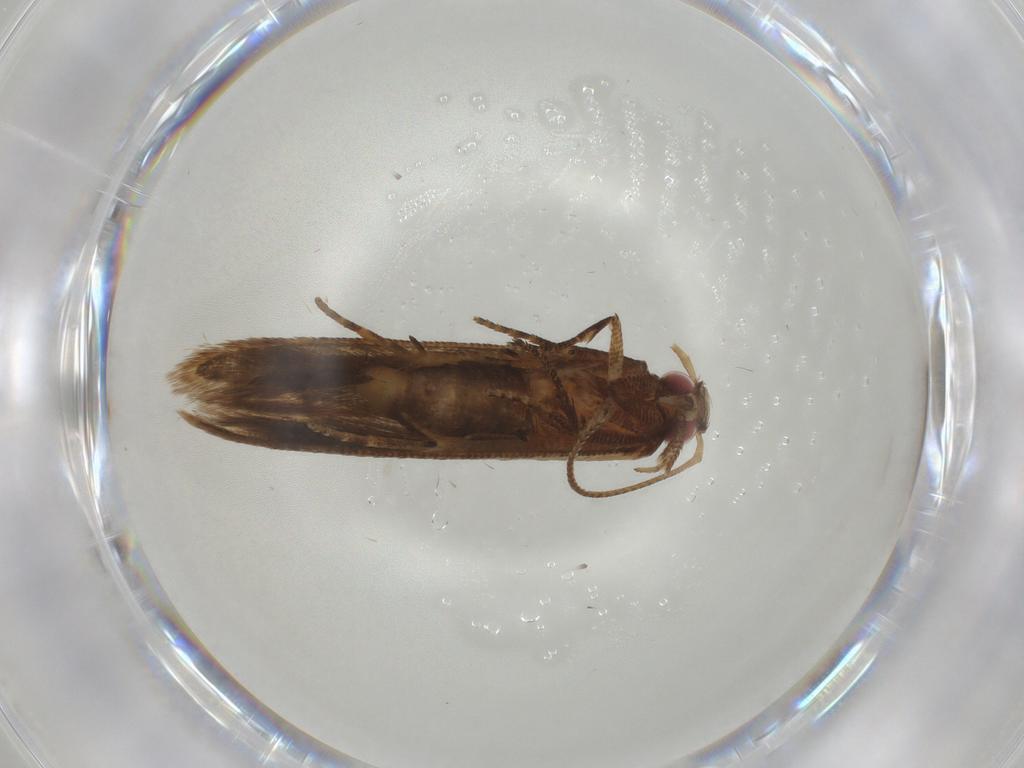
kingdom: Animalia
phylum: Arthropoda
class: Insecta
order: Lepidoptera
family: Gelechiidae
